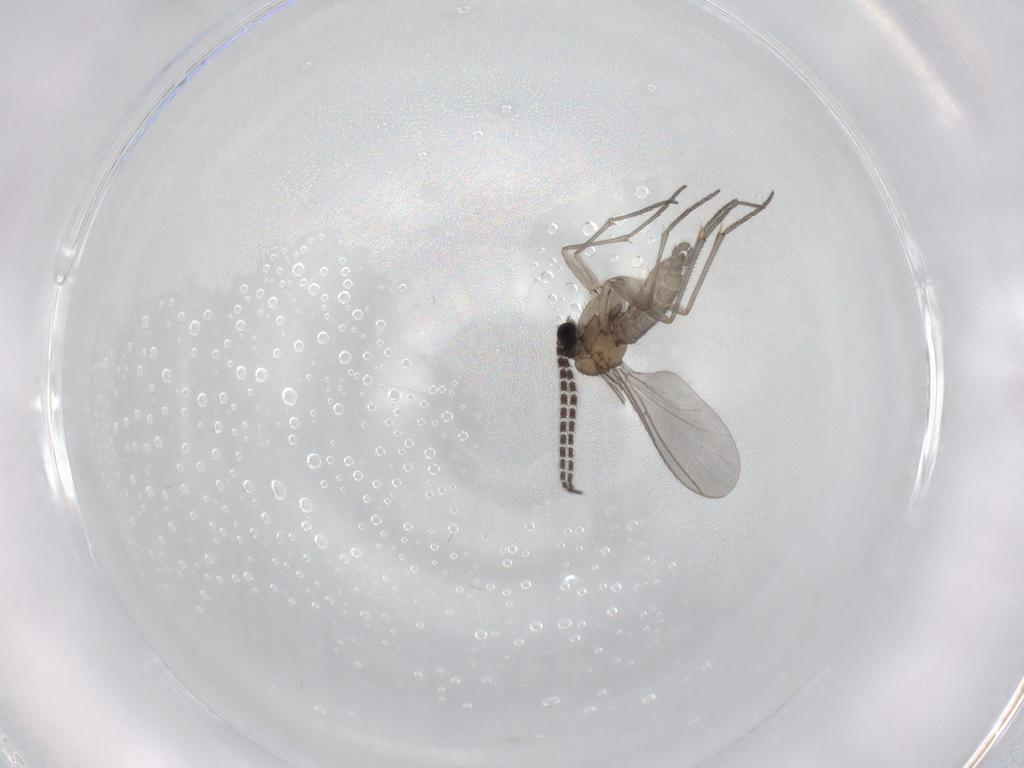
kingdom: Animalia
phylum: Arthropoda
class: Insecta
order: Diptera
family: Sciaridae
